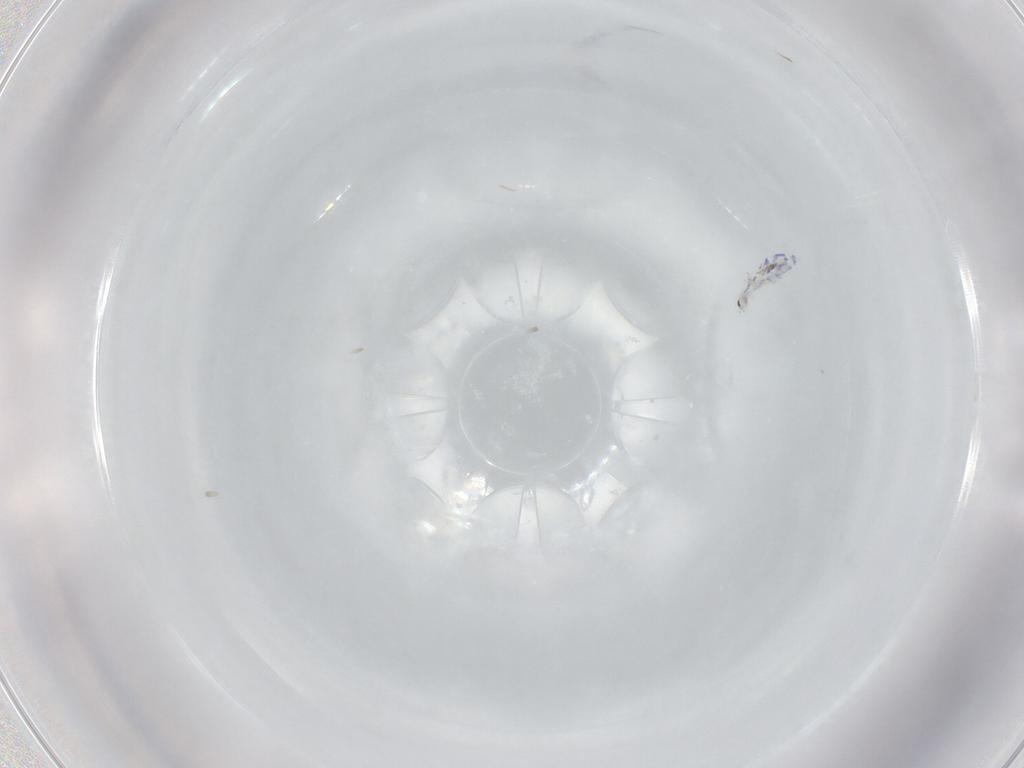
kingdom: Animalia
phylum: Arthropoda
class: Collembola
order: Entomobryomorpha
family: Entomobryidae
